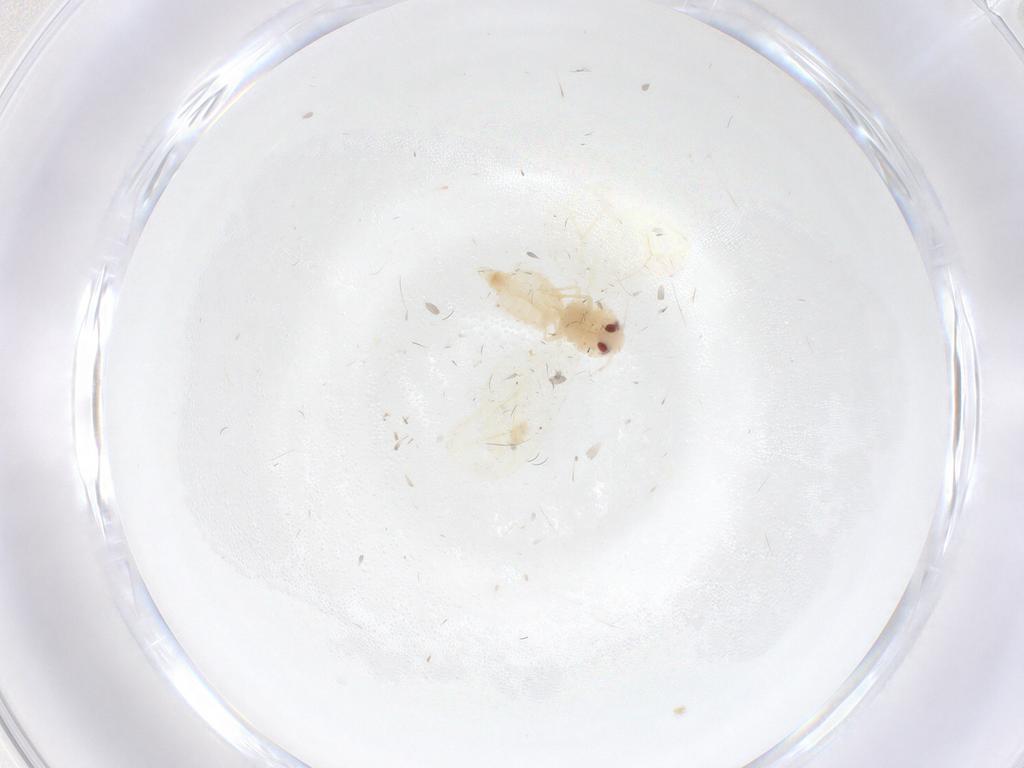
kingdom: Animalia
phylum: Arthropoda
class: Insecta
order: Hemiptera
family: Aleyrodidae
